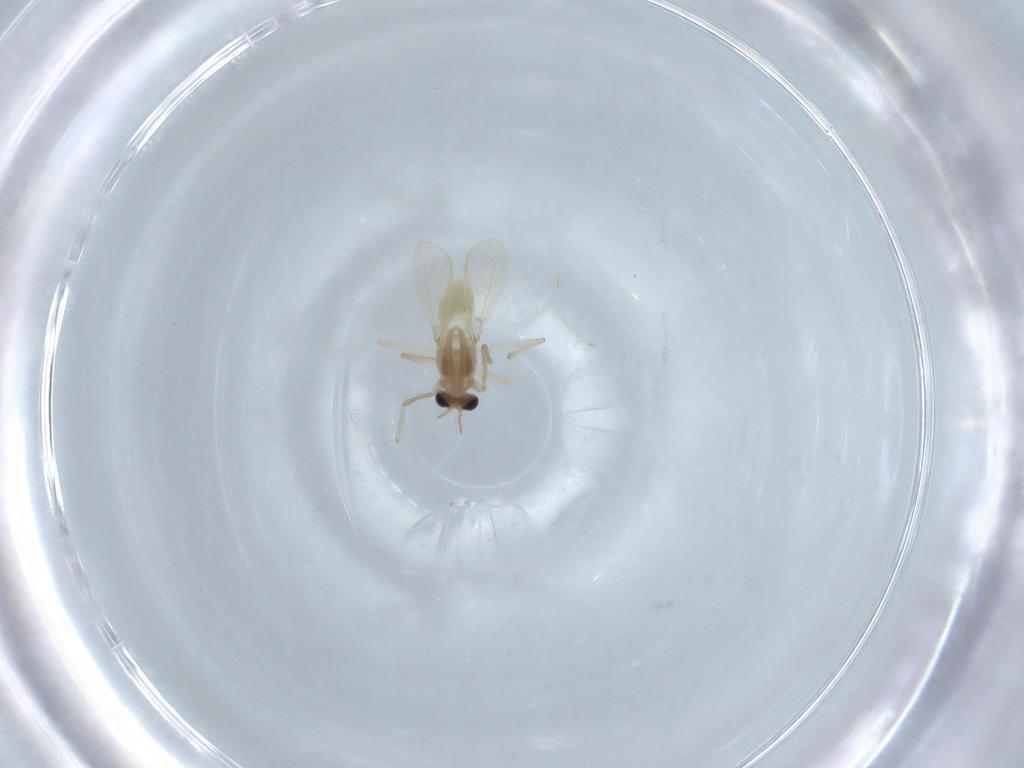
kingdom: Animalia
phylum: Arthropoda
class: Insecta
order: Diptera
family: Chironomidae
